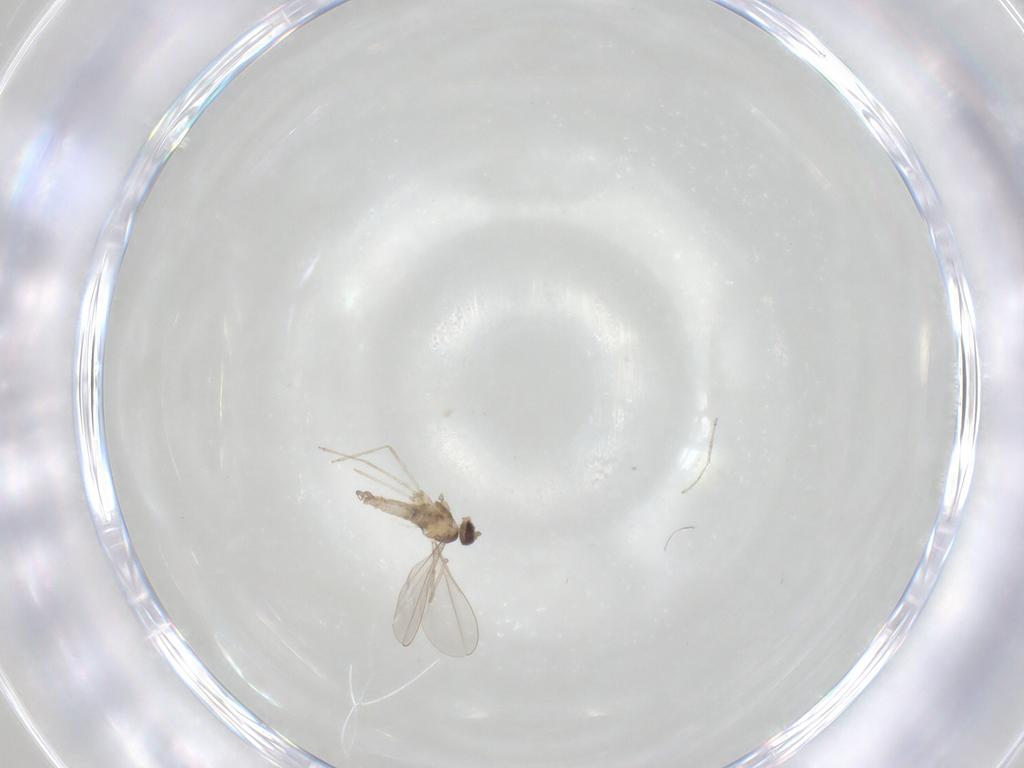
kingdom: Animalia
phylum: Arthropoda
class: Insecta
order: Diptera
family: Cecidomyiidae
